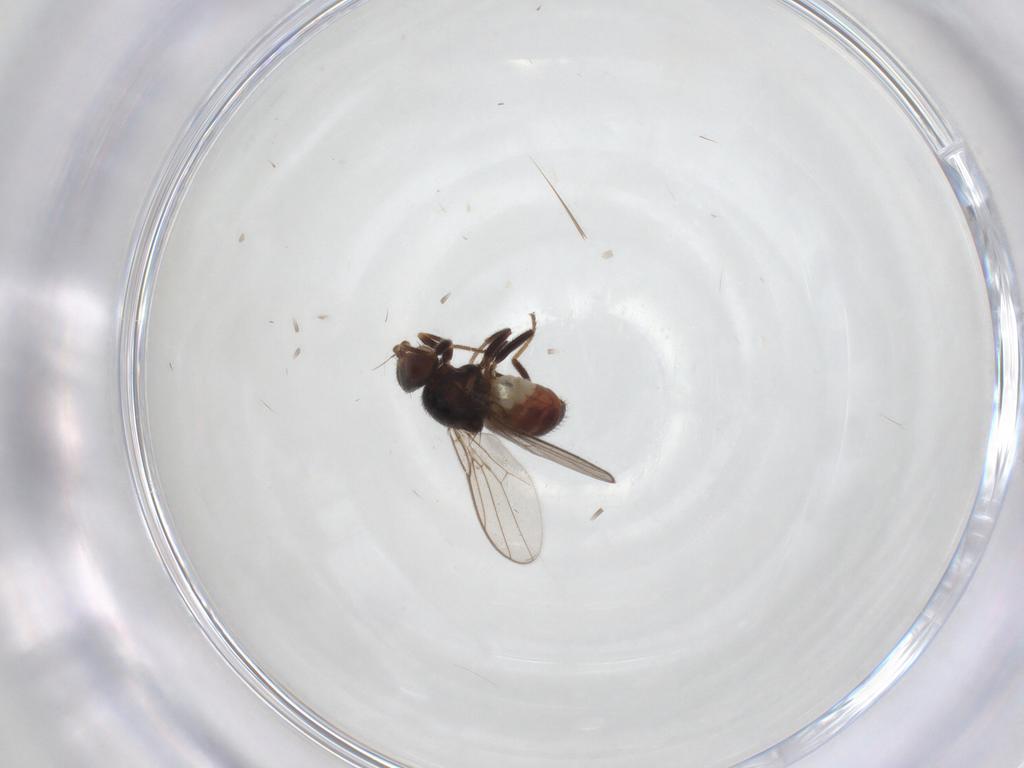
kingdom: Animalia
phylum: Arthropoda
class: Insecta
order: Diptera
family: Chloropidae
